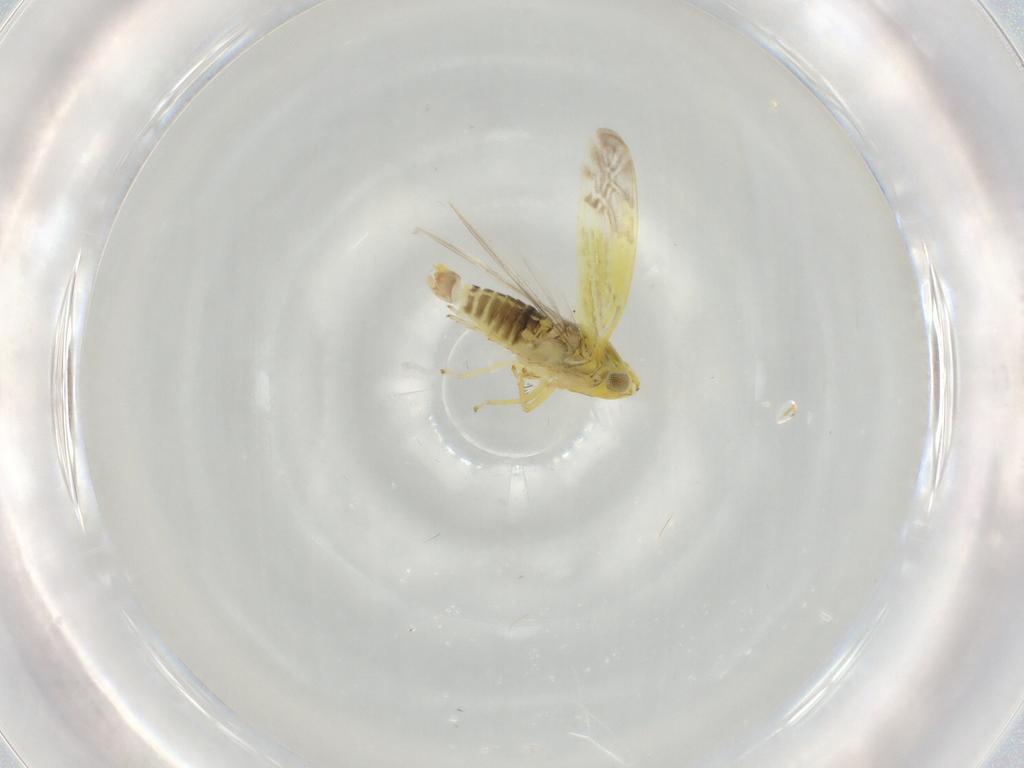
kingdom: Animalia
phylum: Arthropoda
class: Insecta
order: Hemiptera
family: Cicadellidae
